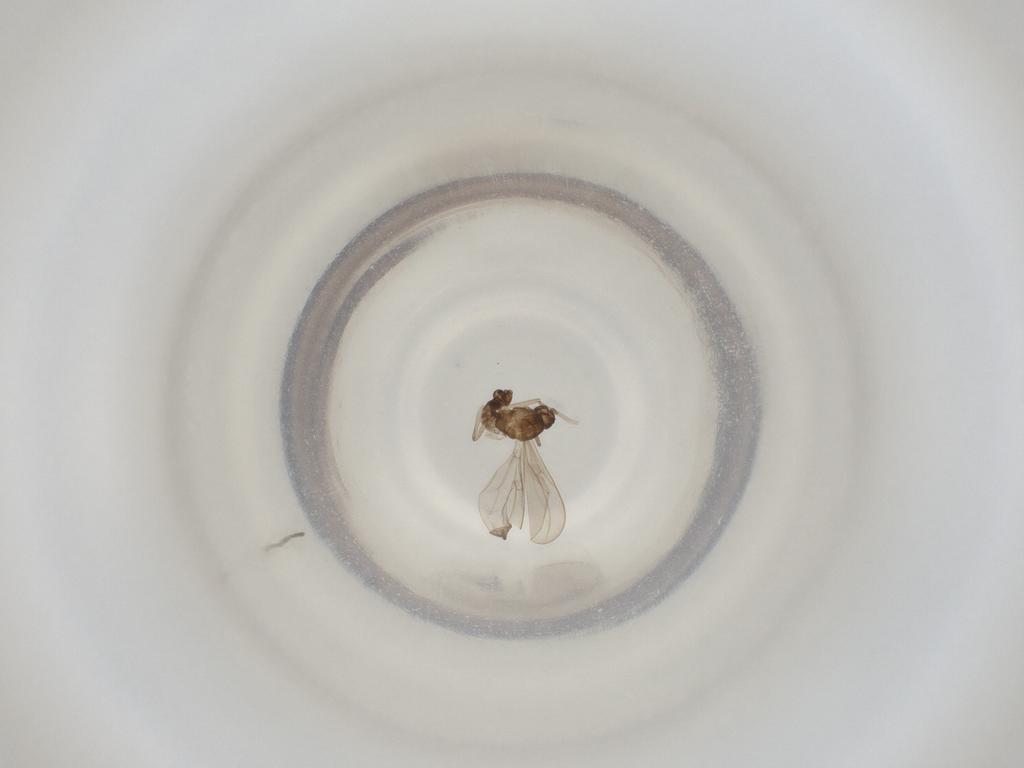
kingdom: Animalia
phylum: Arthropoda
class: Insecta
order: Diptera
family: Cecidomyiidae
